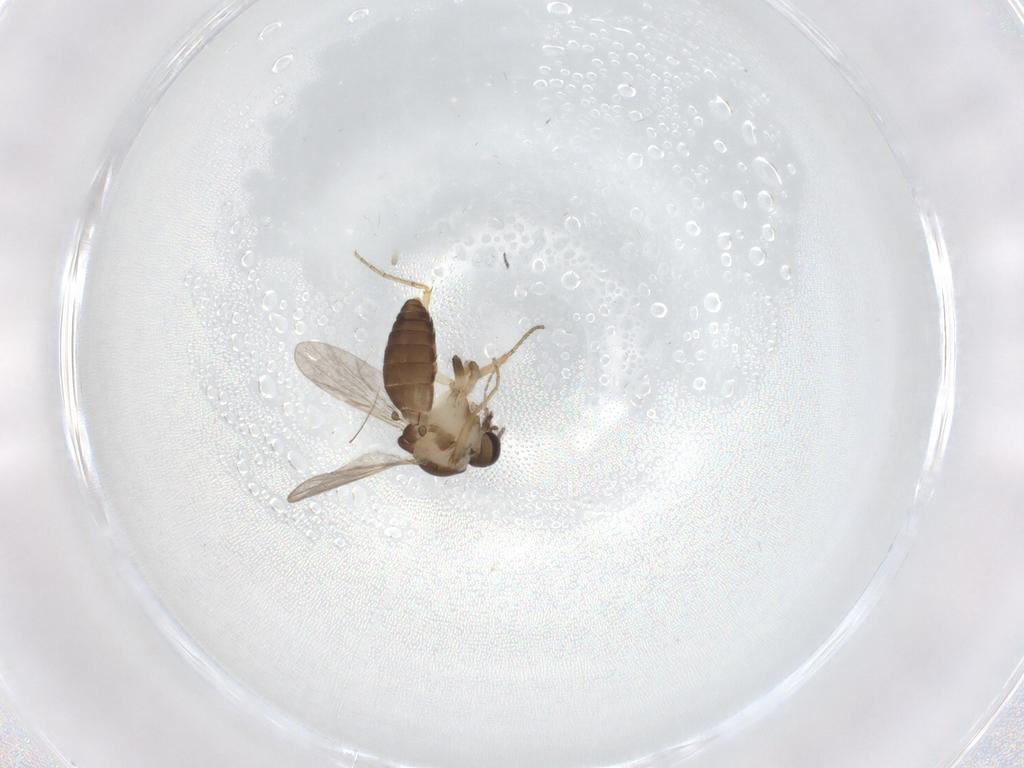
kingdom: Animalia
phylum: Arthropoda
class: Insecta
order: Diptera
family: Ceratopogonidae
